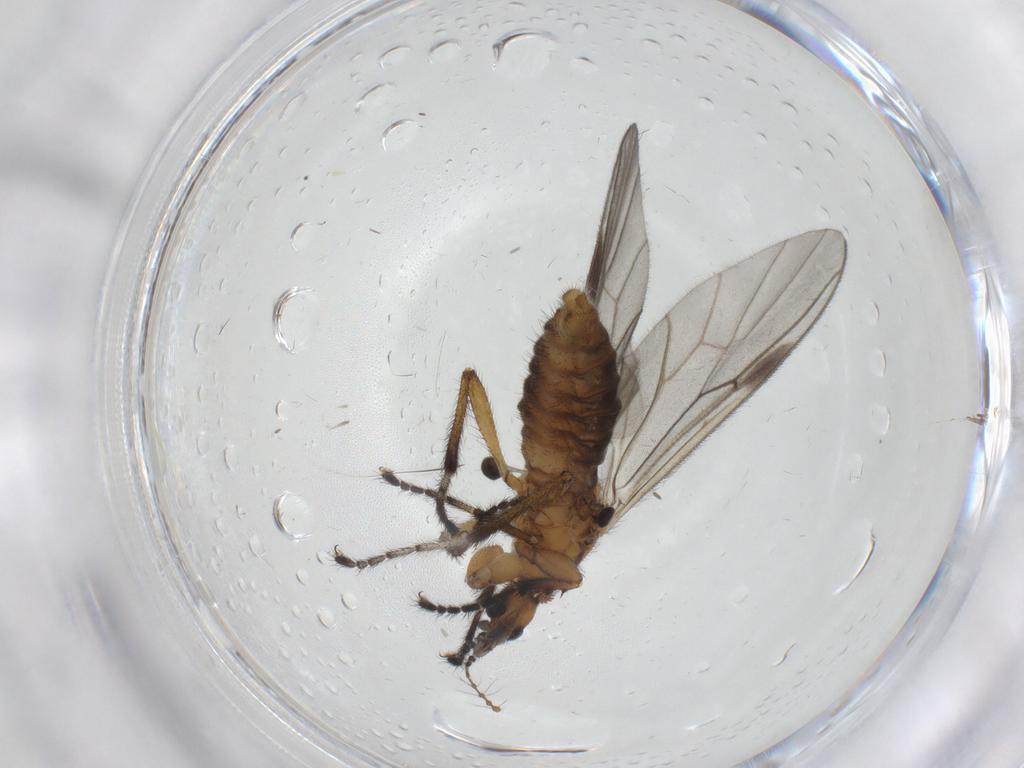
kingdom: Animalia
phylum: Arthropoda
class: Insecta
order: Diptera
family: Bibionidae
